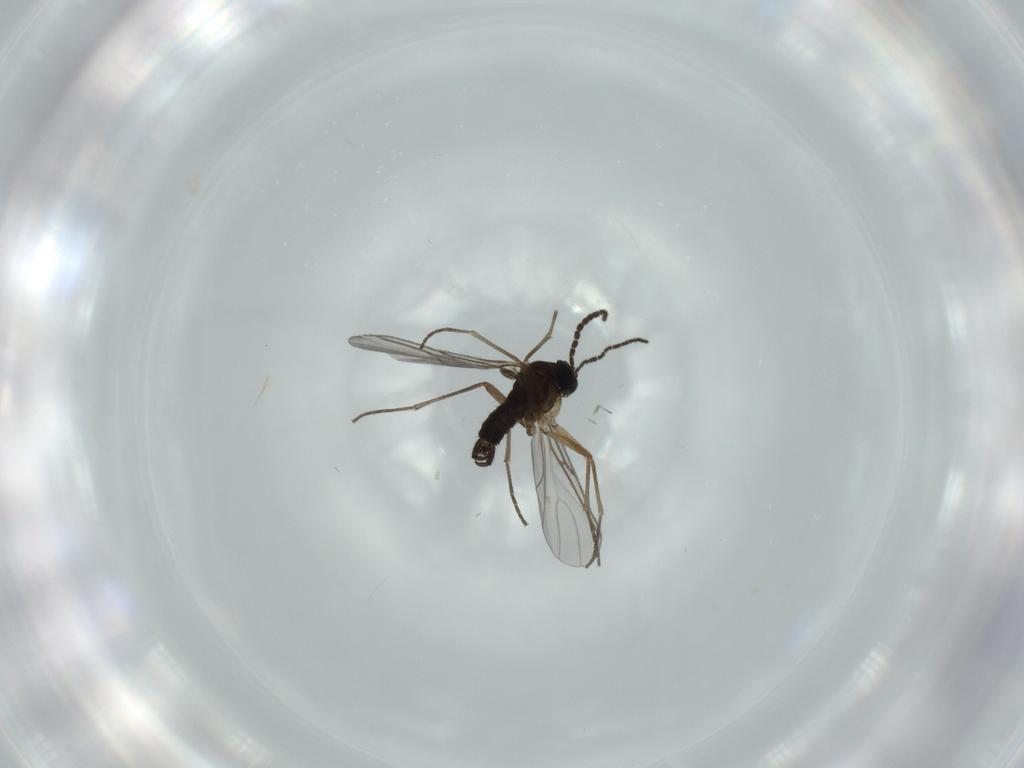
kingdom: Animalia
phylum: Arthropoda
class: Insecta
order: Diptera
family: Sciaridae
